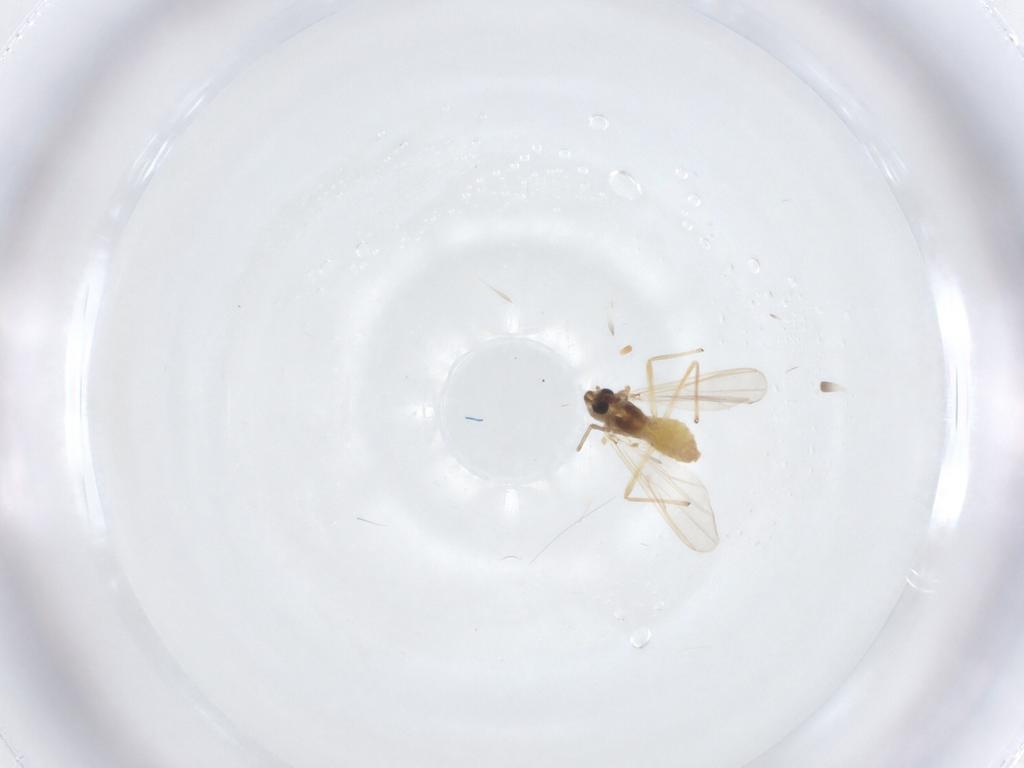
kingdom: Animalia
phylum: Arthropoda
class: Insecta
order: Diptera
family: Chironomidae
